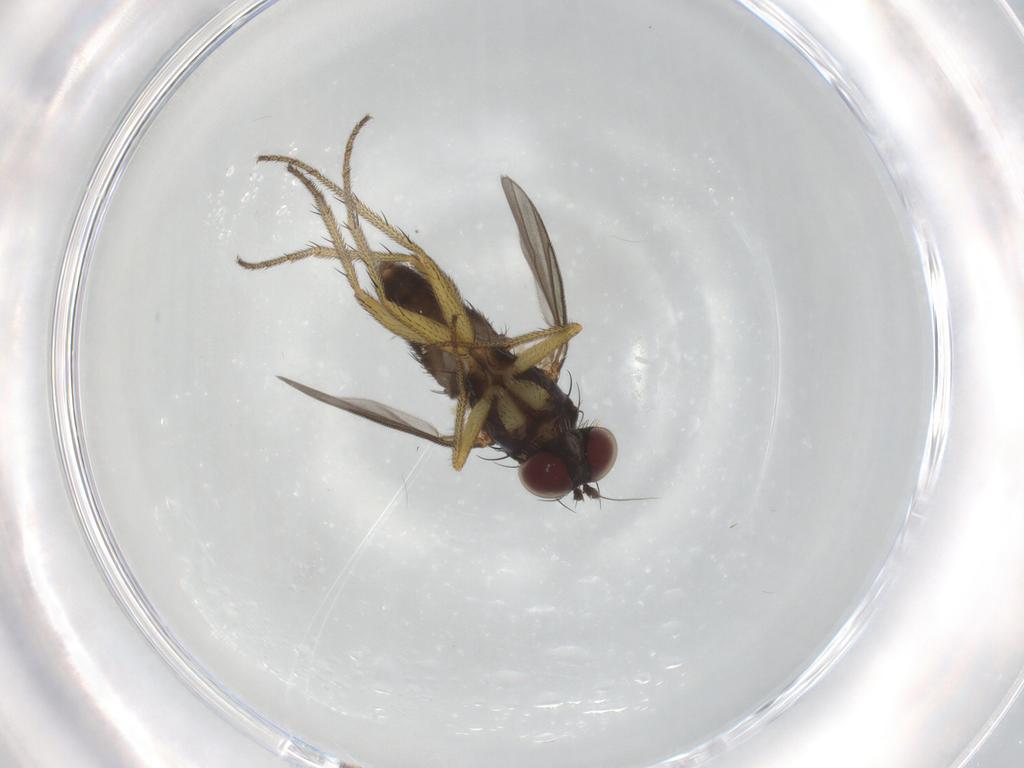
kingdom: Animalia
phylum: Arthropoda
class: Insecta
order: Diptera
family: Dolichopodidae
